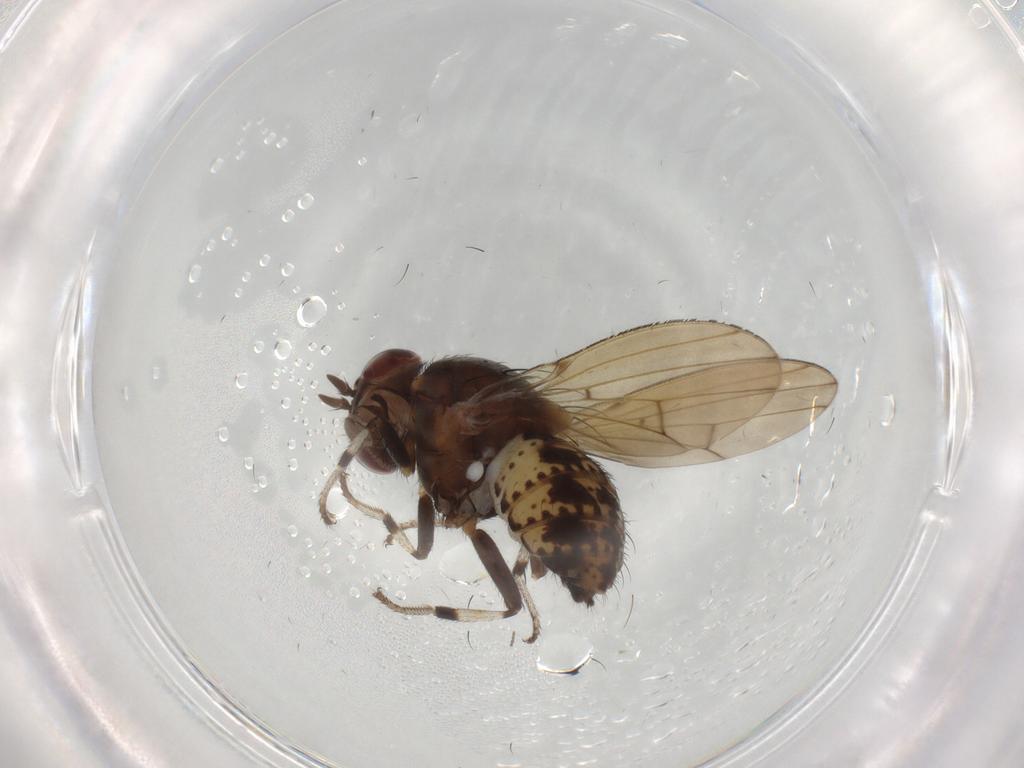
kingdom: Animalia
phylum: Arthropoda
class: Insecta
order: Diptera
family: Cecidomyiidae
